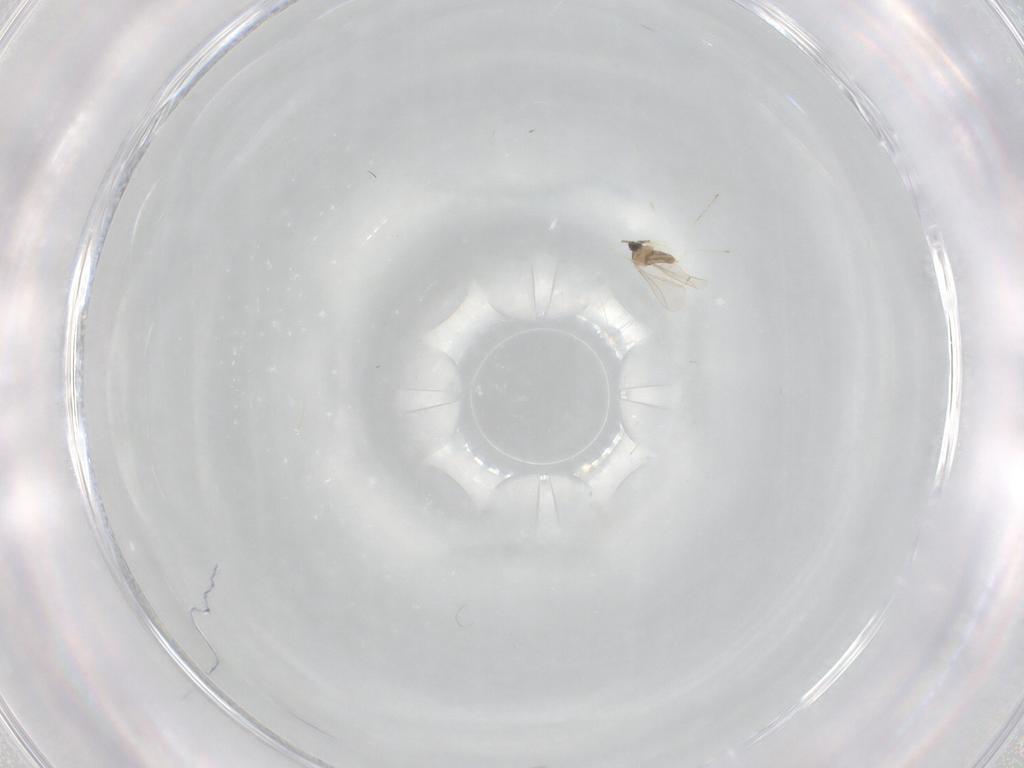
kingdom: Animalia
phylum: Arthropoda
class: Insecta
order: Diptera
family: Cecidomyiidae
